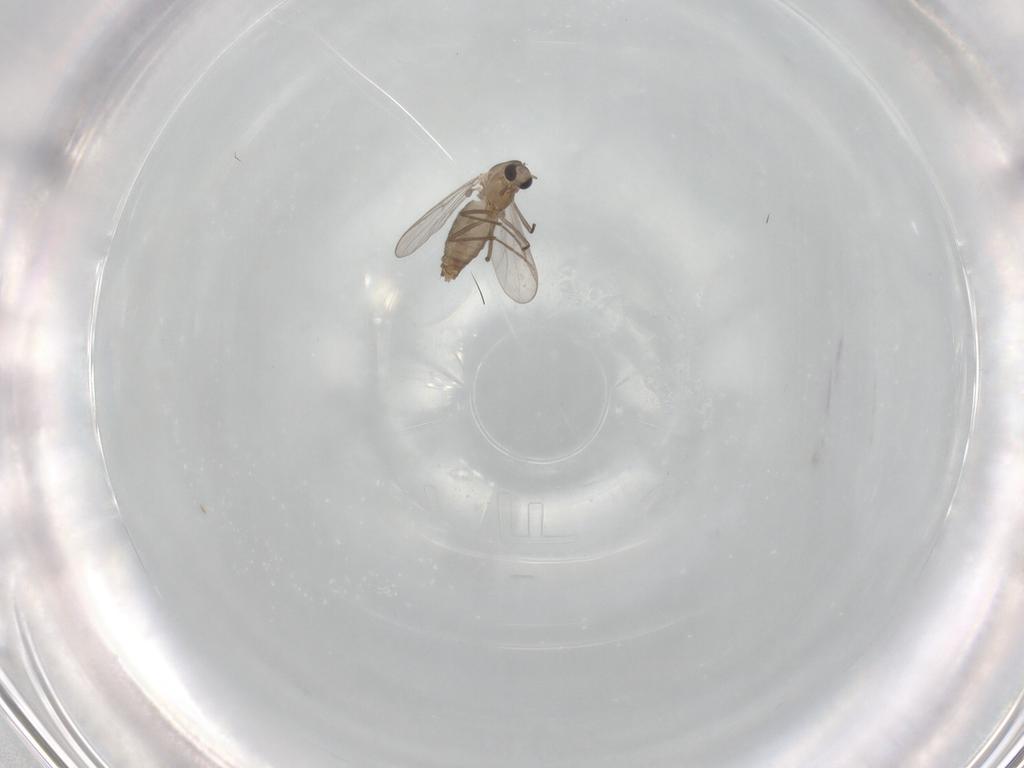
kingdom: Animalia
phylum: Arthropoda
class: Insecta
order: Diptera
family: Chironomidae
